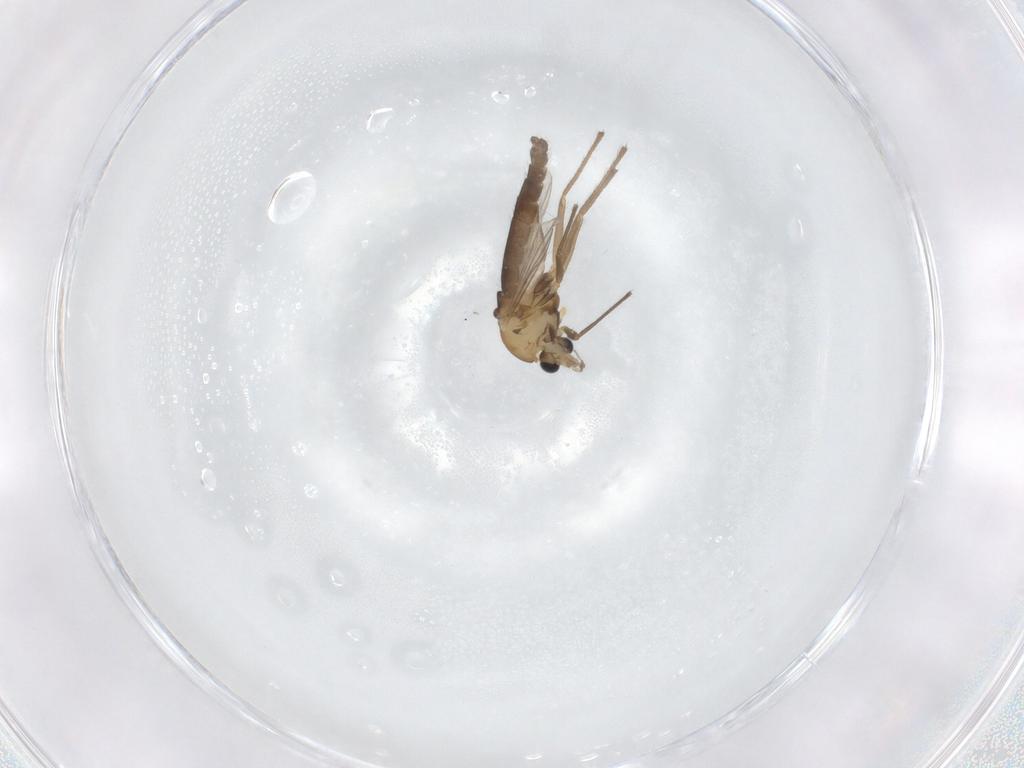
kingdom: Animalia
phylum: Arthropoda
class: Insecta
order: Diptera
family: Chironomidae
